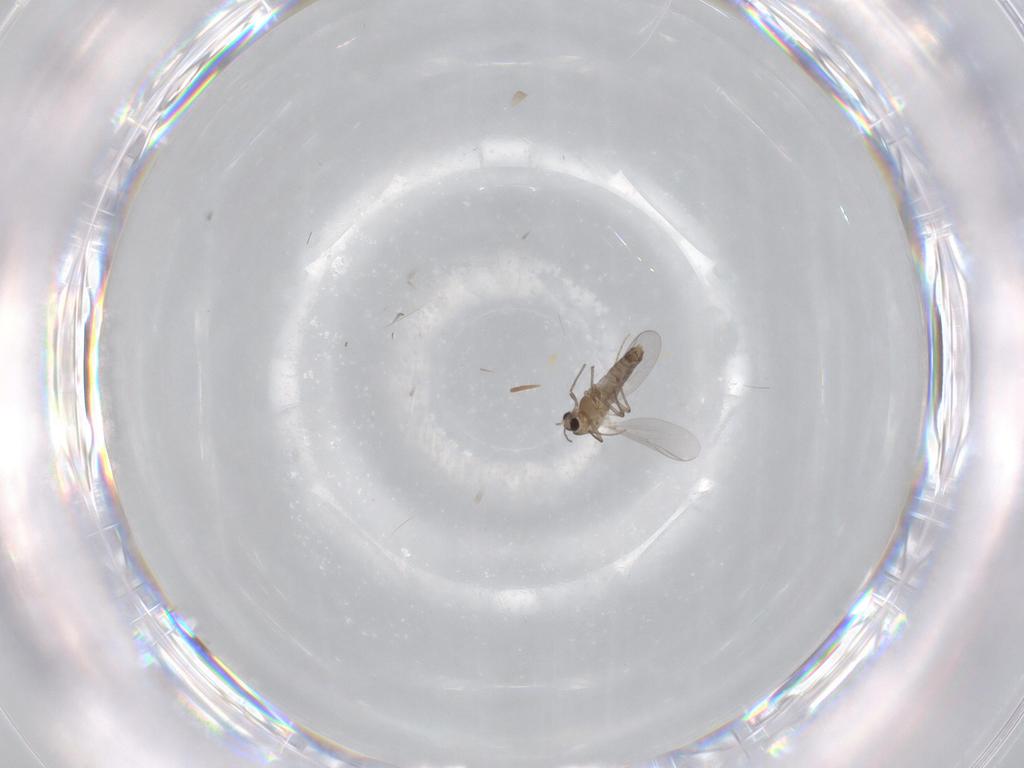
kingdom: Animalia
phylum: Arthropoda
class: Insecta
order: Diptera
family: Chironomidae
